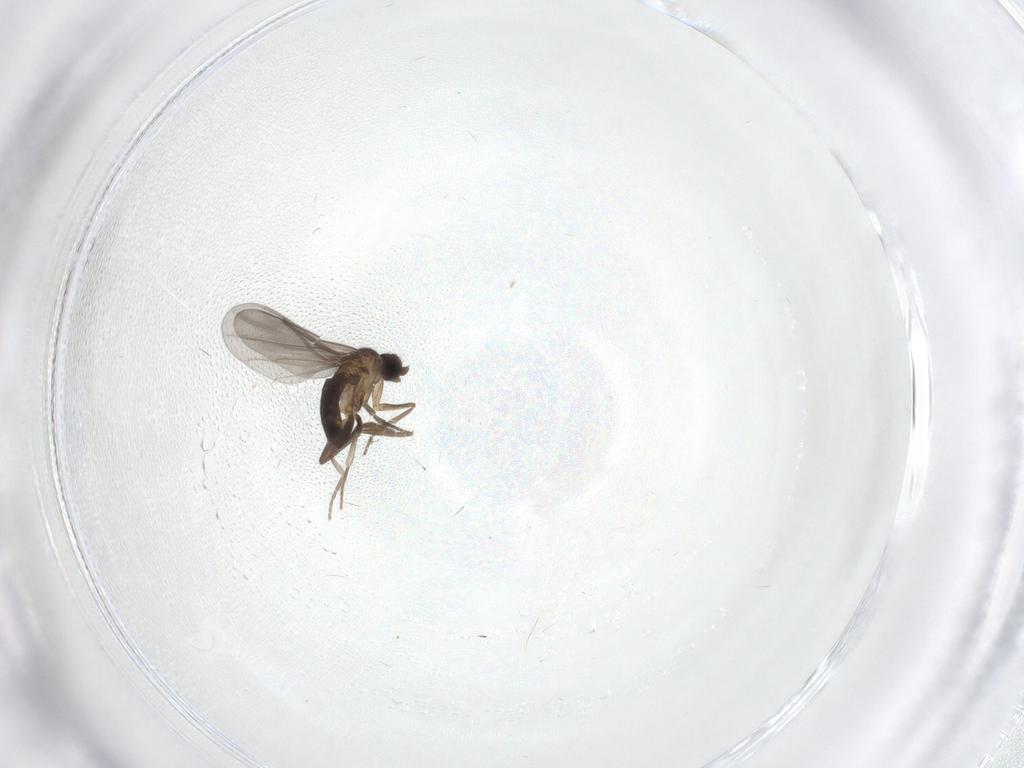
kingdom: Animalia
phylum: Arthropoda
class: Insecta
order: Diptera
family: Phoridae
